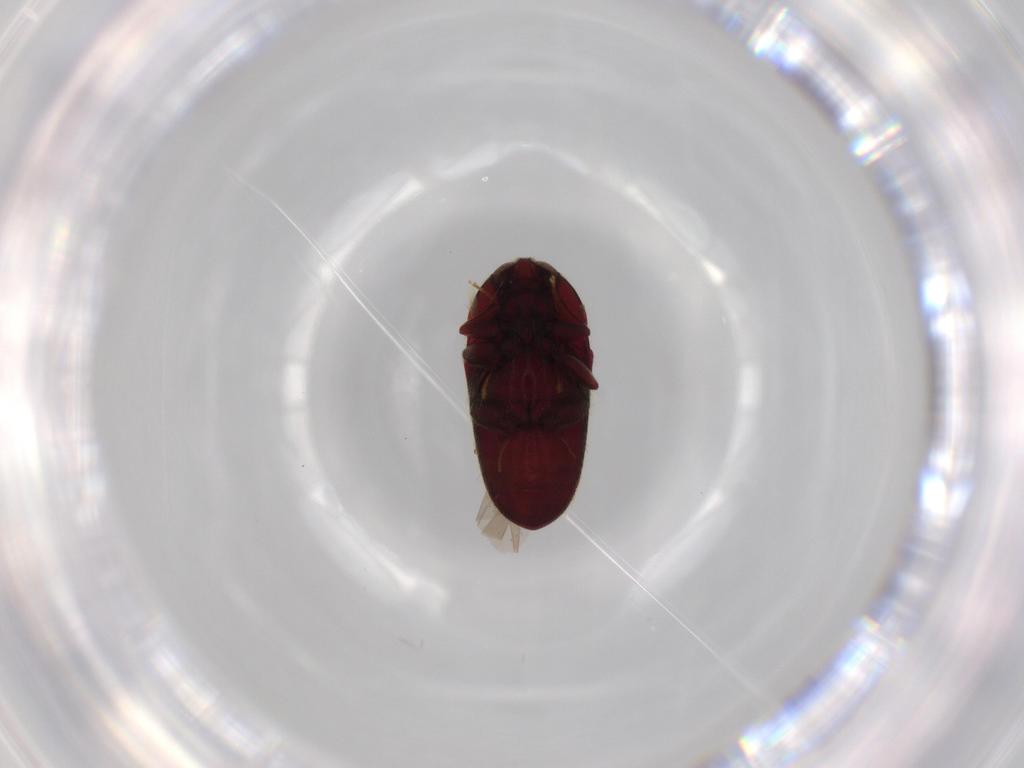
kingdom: Animalia
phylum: Arthropoda
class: Insecta
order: Coleoptera
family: Throscidae
